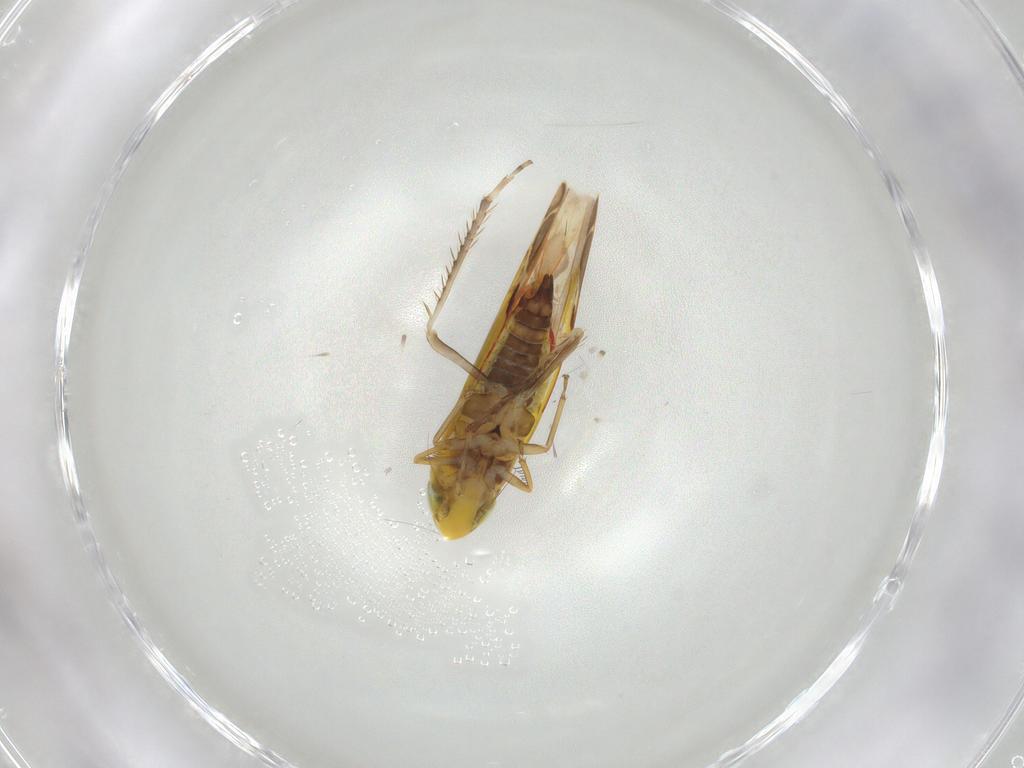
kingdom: Animalia
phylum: Arthropoda
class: Insecta
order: Hemiptera
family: Cicadellidae
